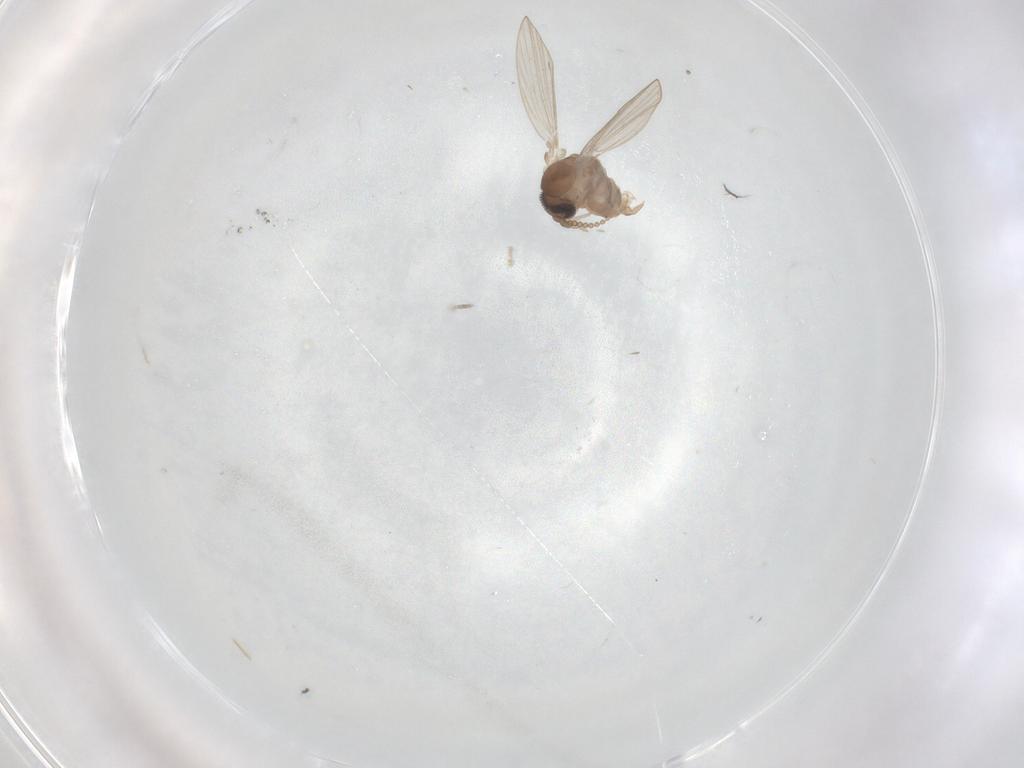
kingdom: Animalia
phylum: Arthropoda
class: Insecta
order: Diptera
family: Psychodidae
